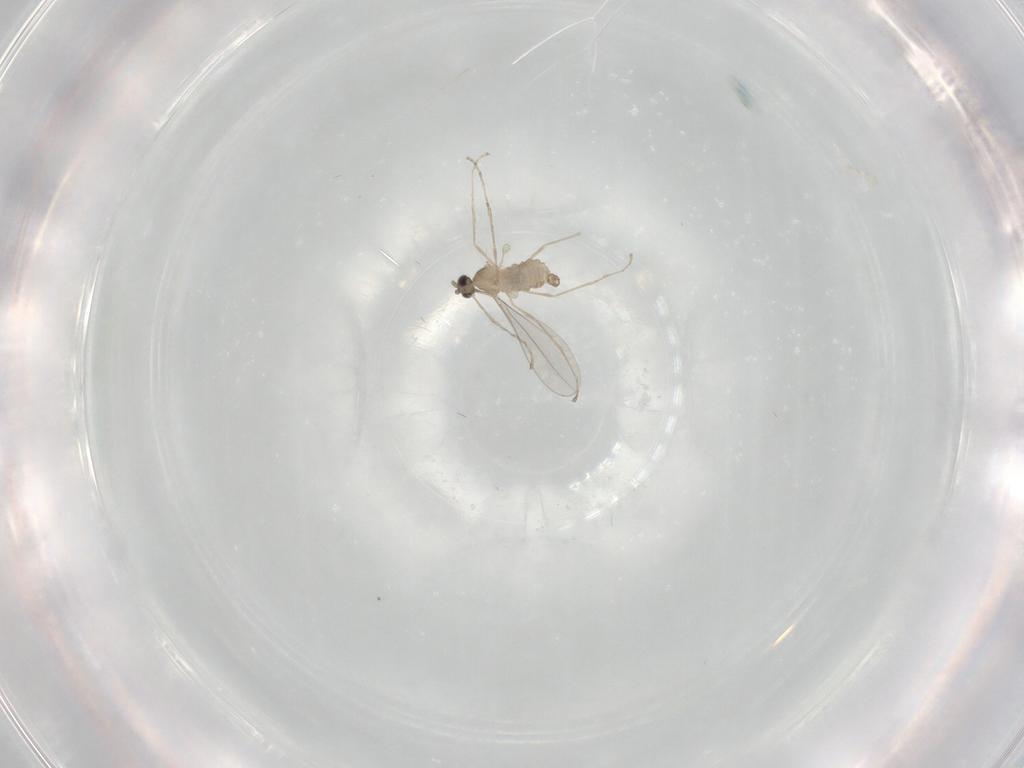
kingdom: Animalia
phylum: Arthropoda
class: Insecta
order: Diptera
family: Cecidomyiidae
